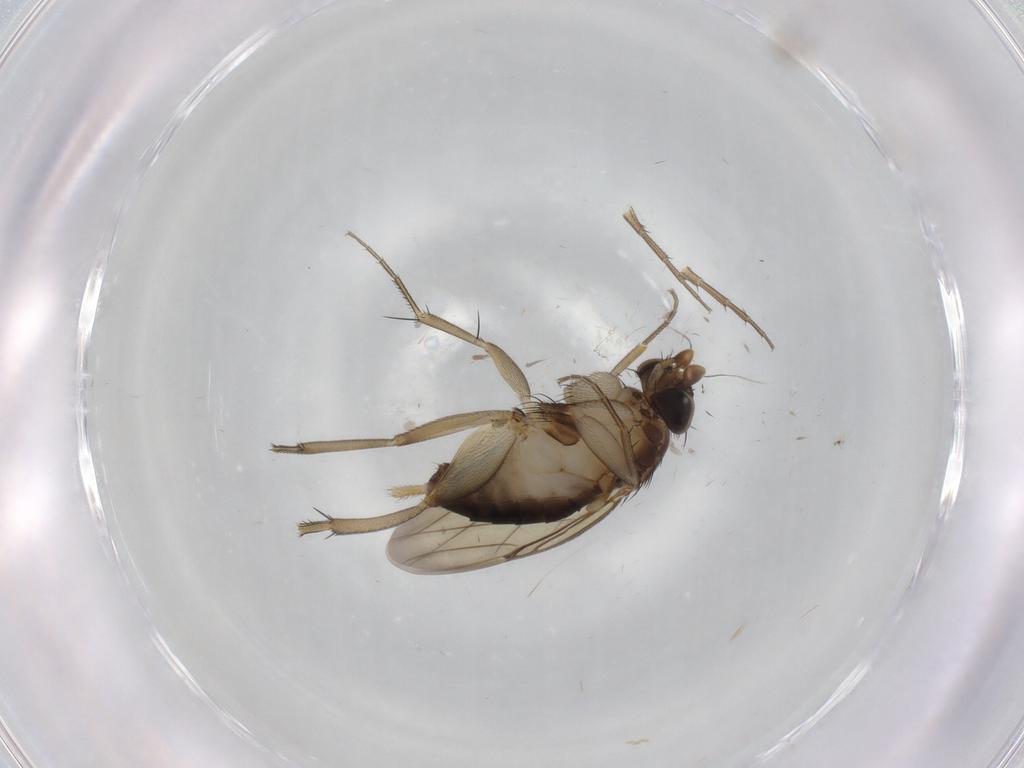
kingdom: Animalia
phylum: Arthropoda
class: Insecta
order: Diptera
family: Phoridae
